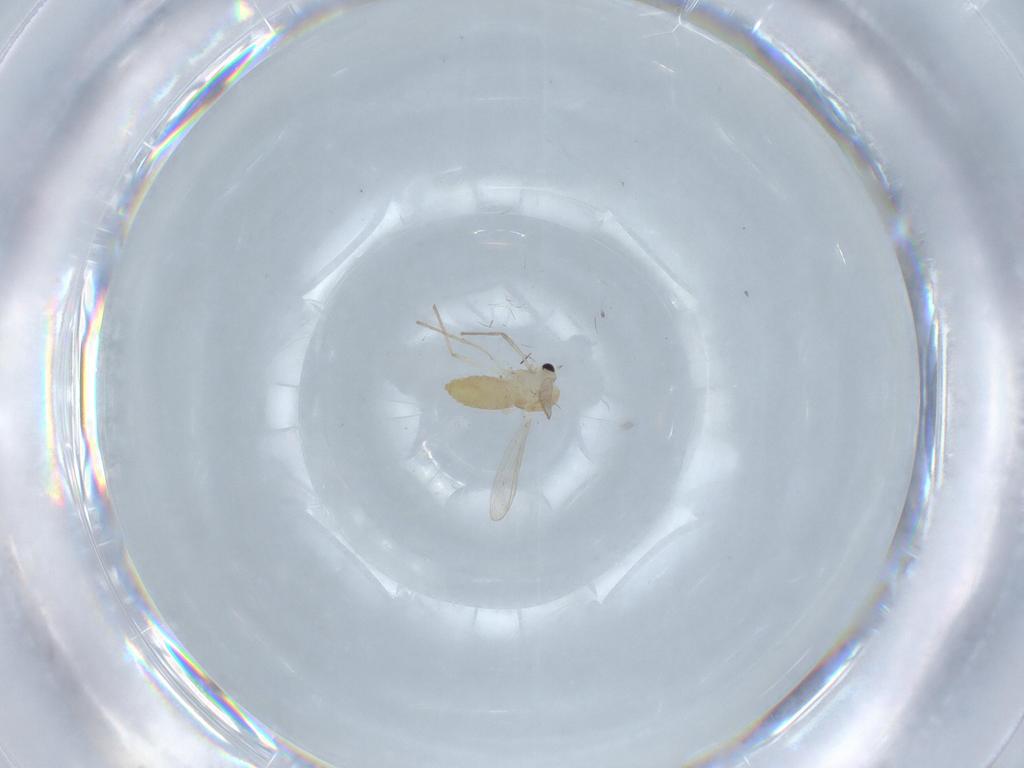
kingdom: Animalia
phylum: Arthropoda
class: Insecta
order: Diptera
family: Chironomidae
